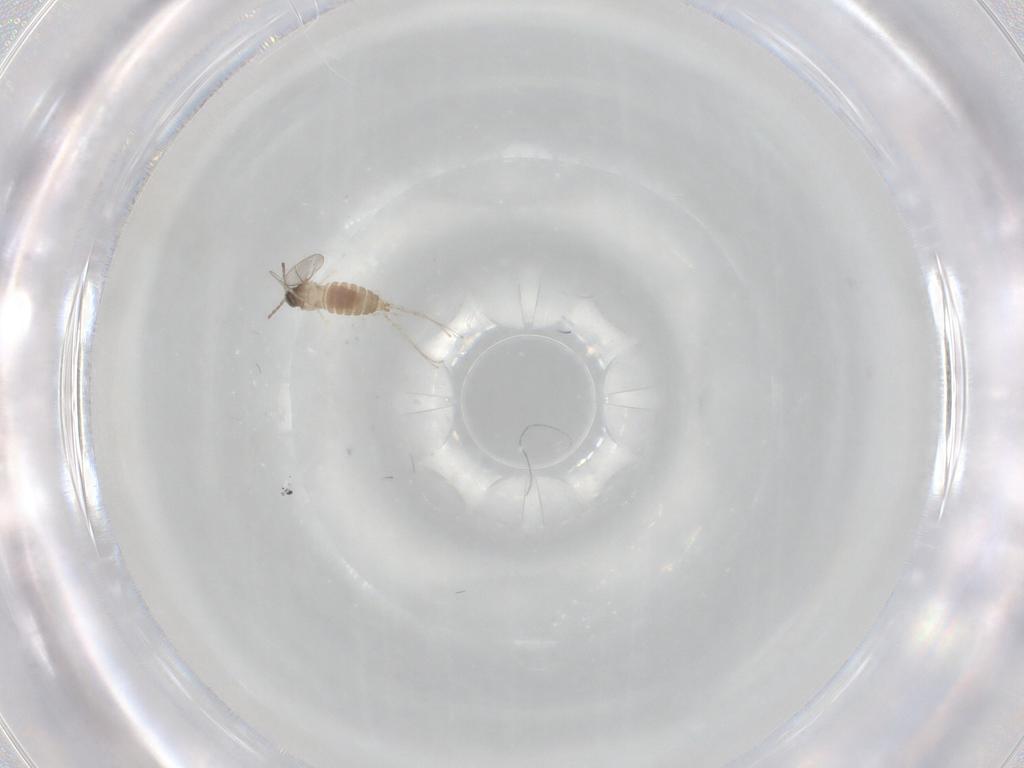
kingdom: Animalia
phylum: Arthropoda
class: Insecta
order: Diptera
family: Cecidomyiidae
